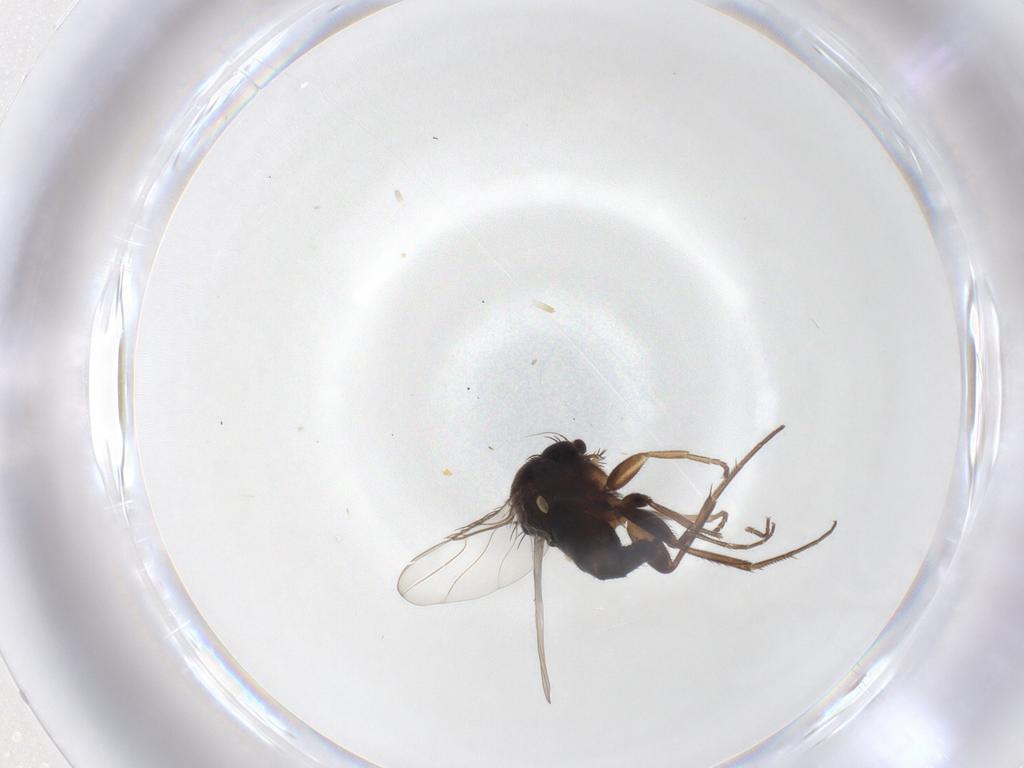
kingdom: Animalia
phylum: Arthropoda
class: Insecta
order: Diptera
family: Phoridae
